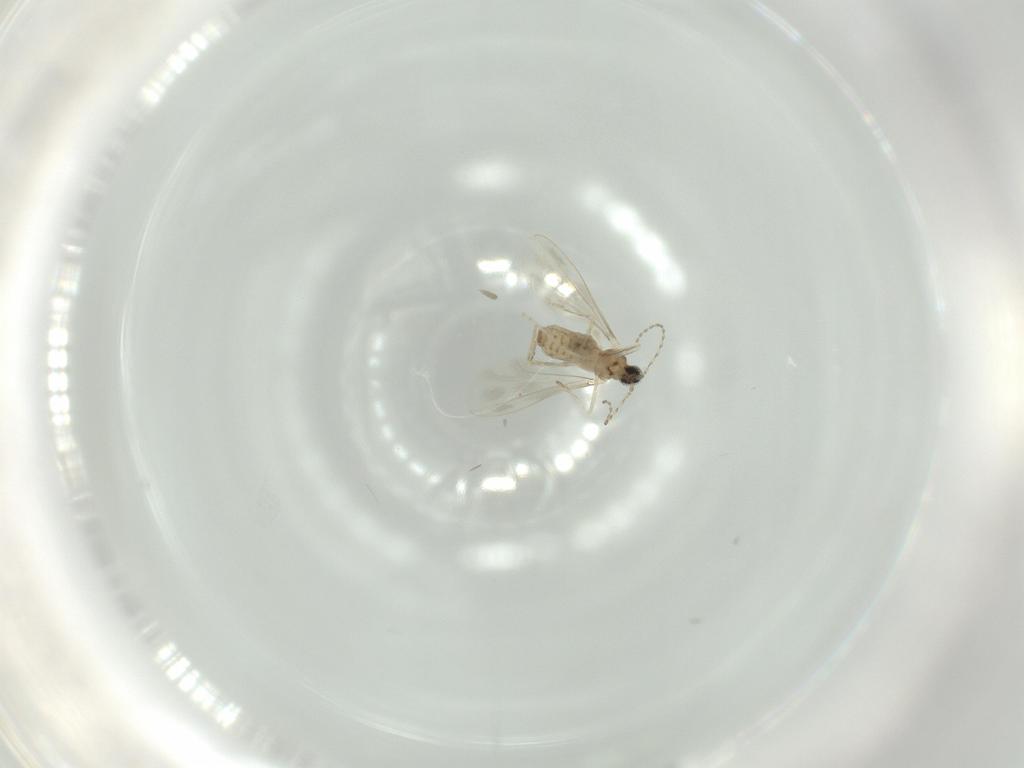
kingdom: Animalia
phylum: Arthropoda
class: Insecta
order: Diptera
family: Cecidomyiidae
